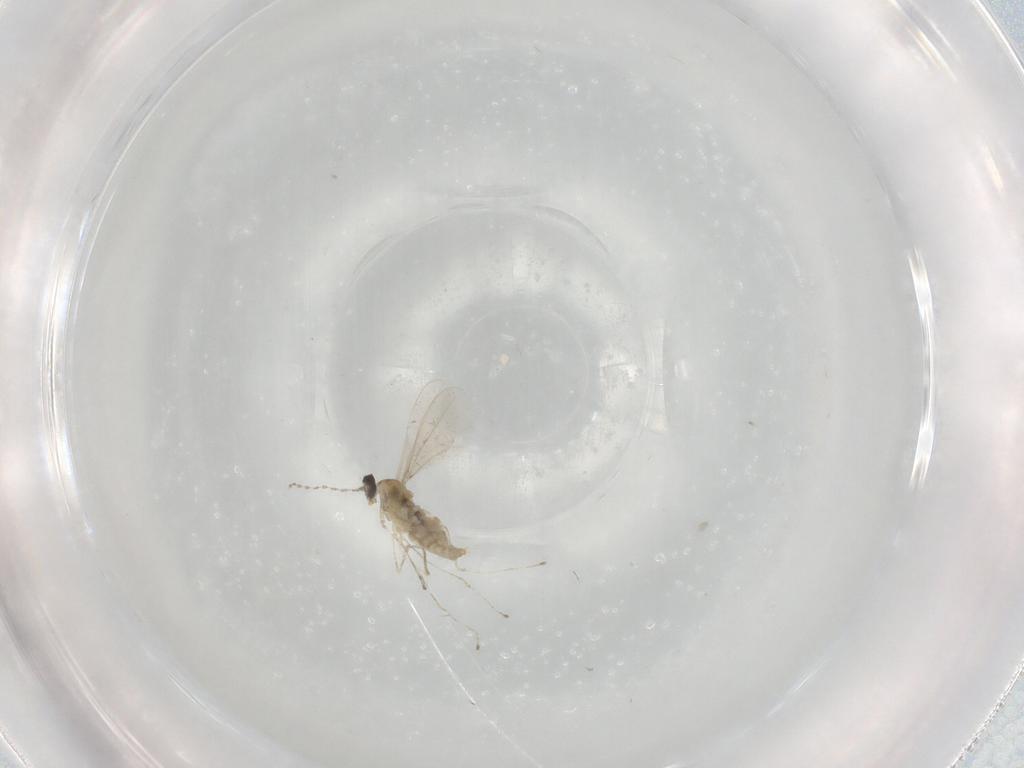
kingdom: Animalia
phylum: Arthropoda
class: Insecta
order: Diptera
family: Cecidomyiidae
